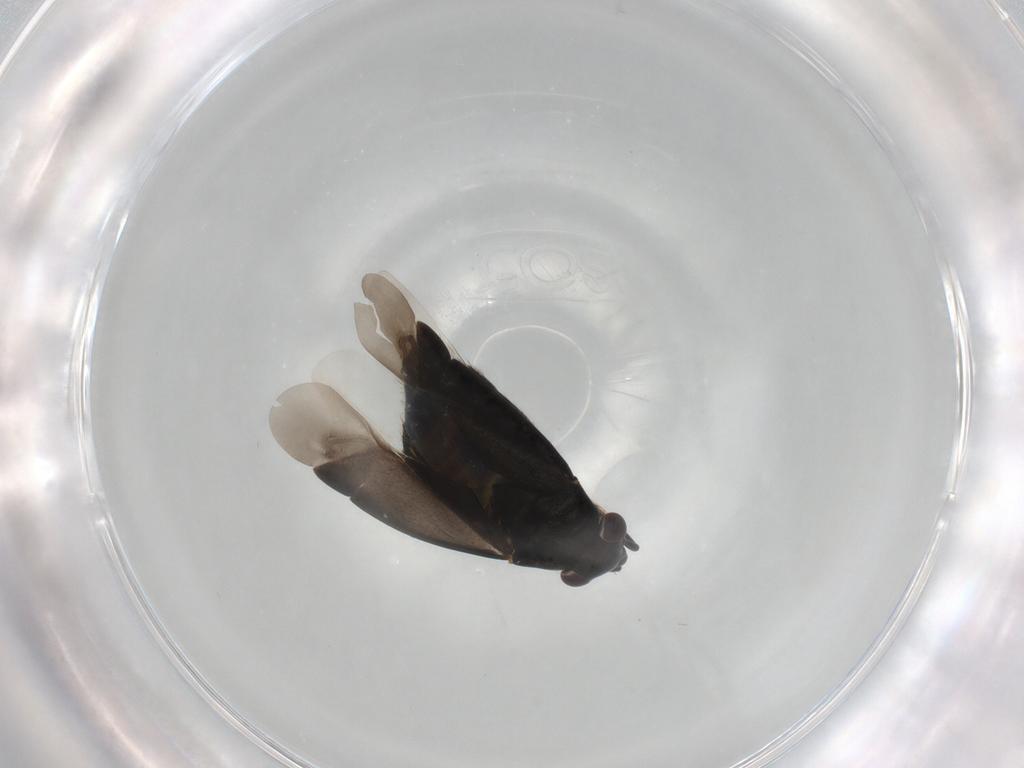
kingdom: Animalia
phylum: Arthropoda
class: Insecta
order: Hemiptera
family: Miridae
